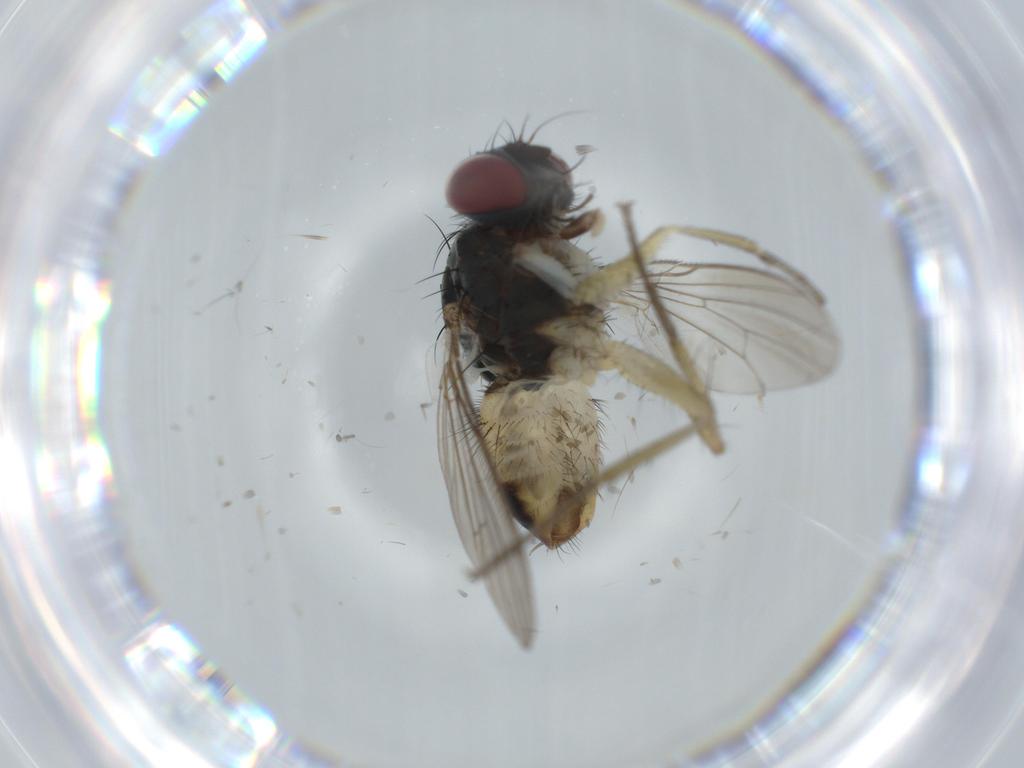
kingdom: Animalia
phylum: Arthropoda
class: Insecta
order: Diptera
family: Muscidae
